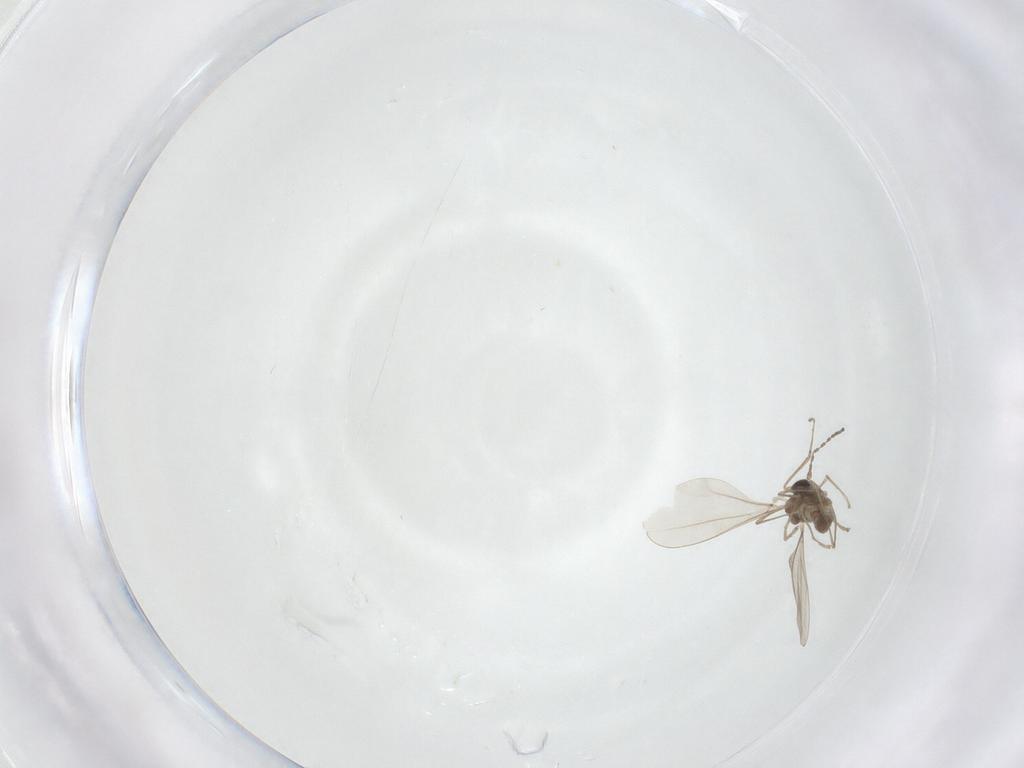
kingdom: Animalia
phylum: Arthropoda
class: Insecta
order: Diptera
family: Cecidomyiidae
